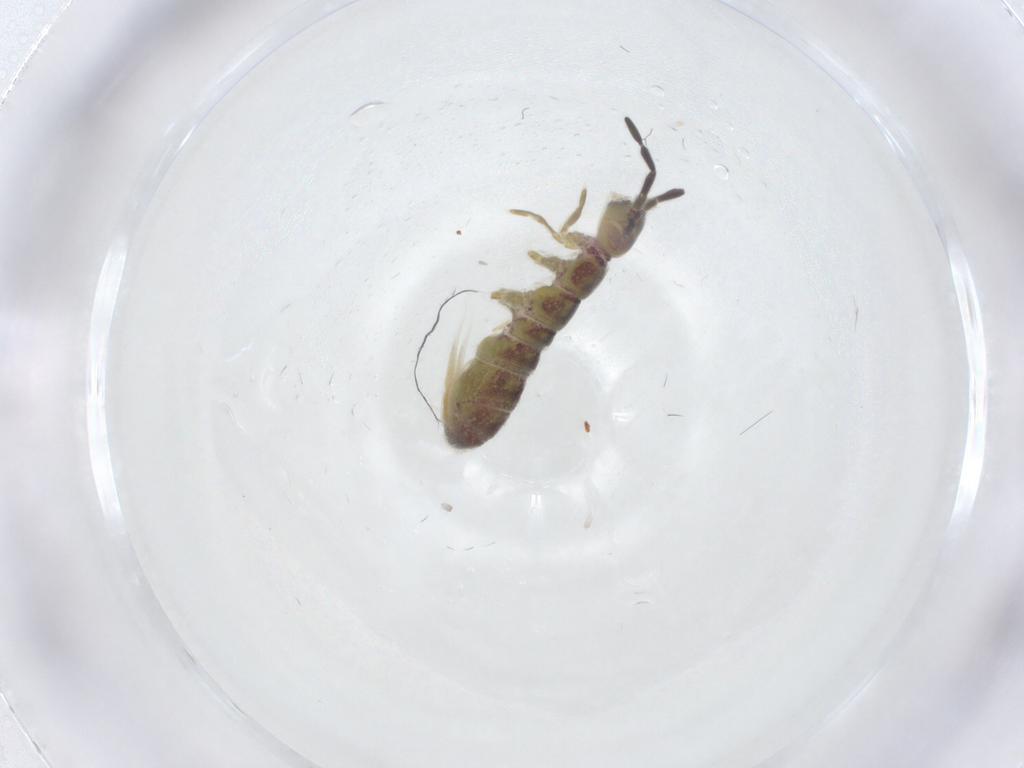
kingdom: Animalia
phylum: Arthropoda
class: Collembola
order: Entomobryomorpha
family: Isotomidae
